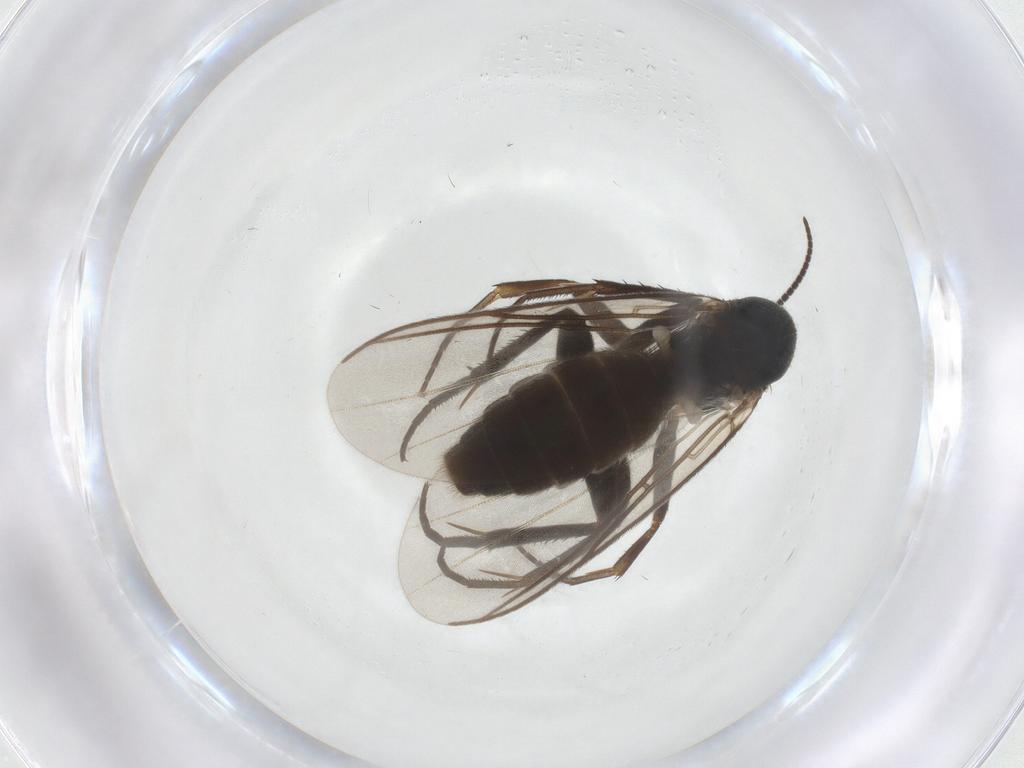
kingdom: Animalia
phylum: Arthropoda
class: Insecta
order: Diptera
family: Mycetophilidae
